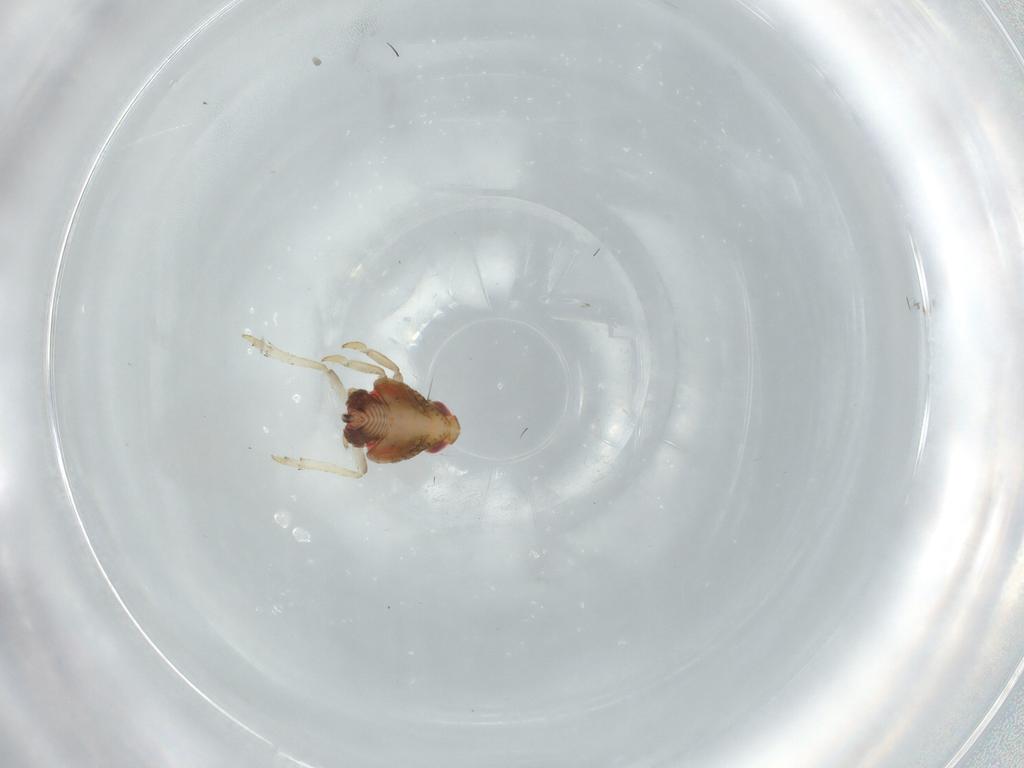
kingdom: Animalia
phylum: Arthropoda
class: Insecta
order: Hemiptera
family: Issidae
